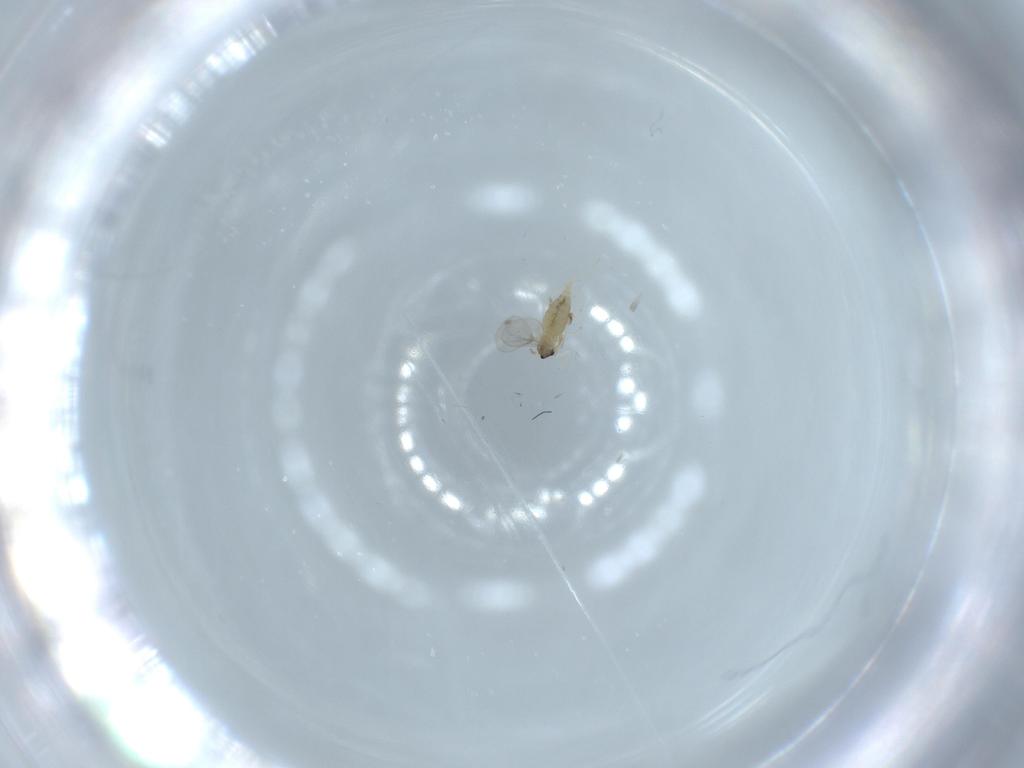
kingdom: Animalia
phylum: Arthropoda
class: Insecta
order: Diptera
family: Cecidomyiidae
